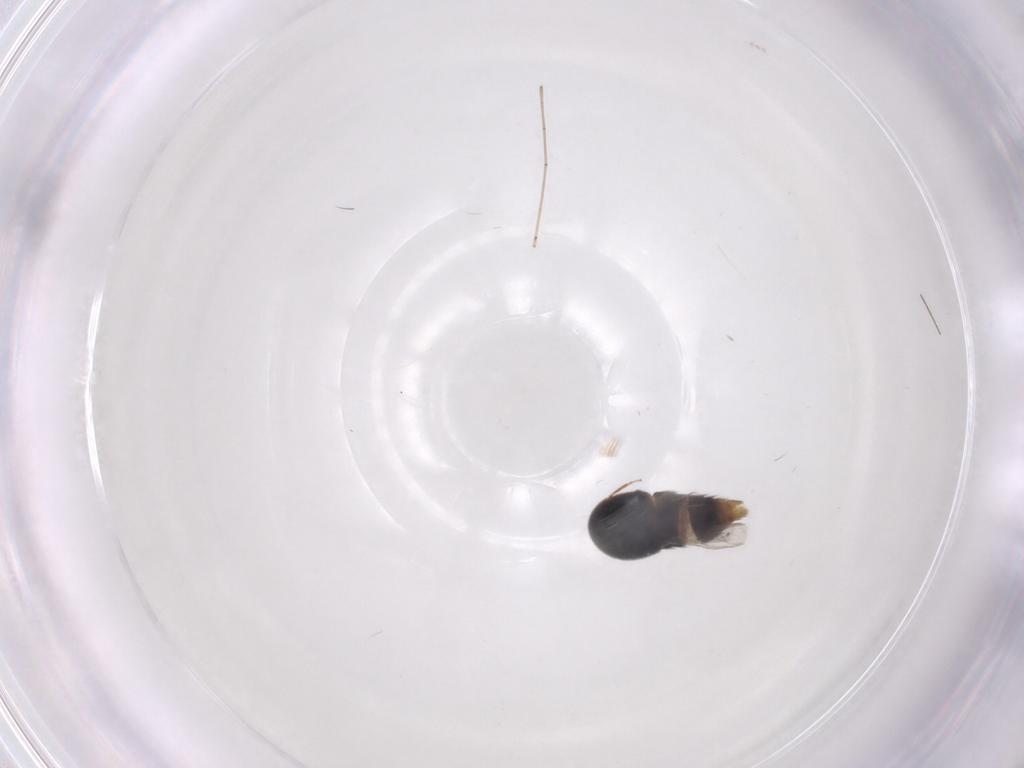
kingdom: Animalia
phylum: Arthropoda
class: Insecta
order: Coleoptera
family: Staphylinidae
